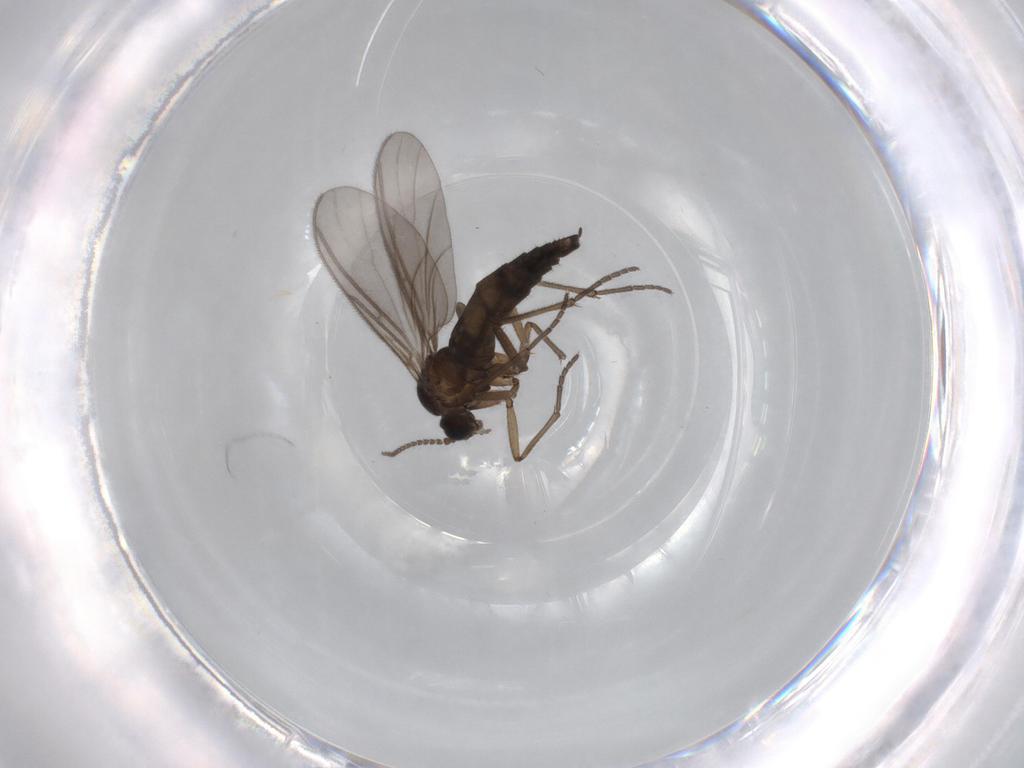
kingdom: Animalia
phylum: Arthropoda
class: Insecta
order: Diptera
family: Sciaridae
